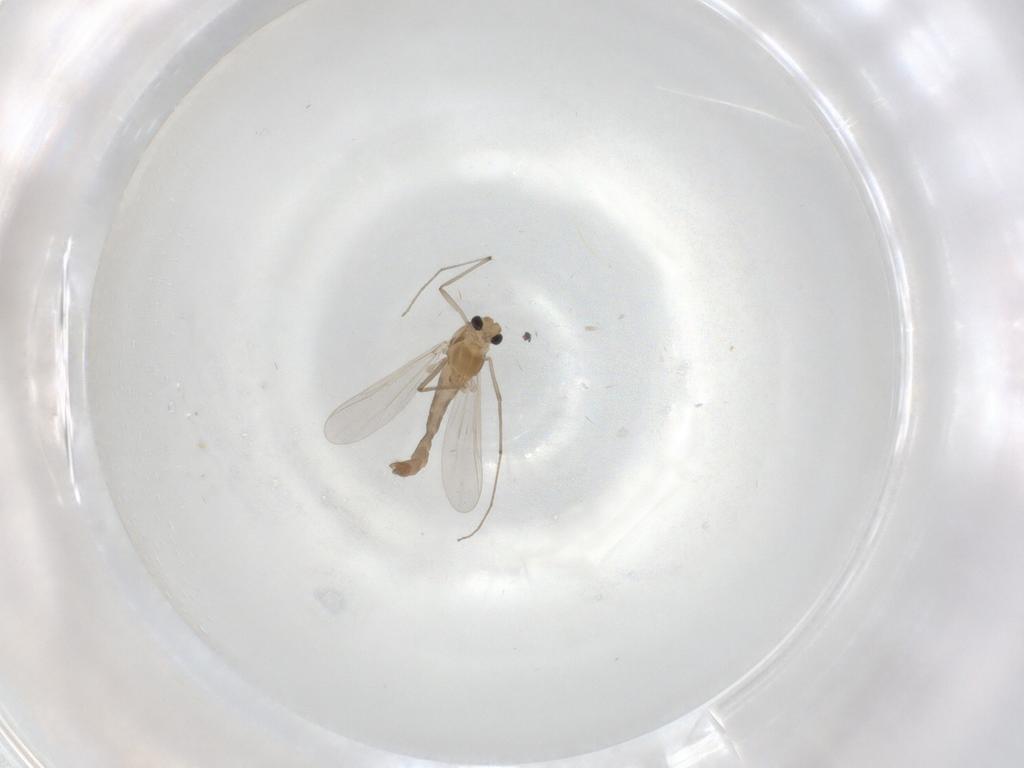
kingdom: Animalia
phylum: Arthropoda
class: Insecta
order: Diptera
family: Chironomidae
